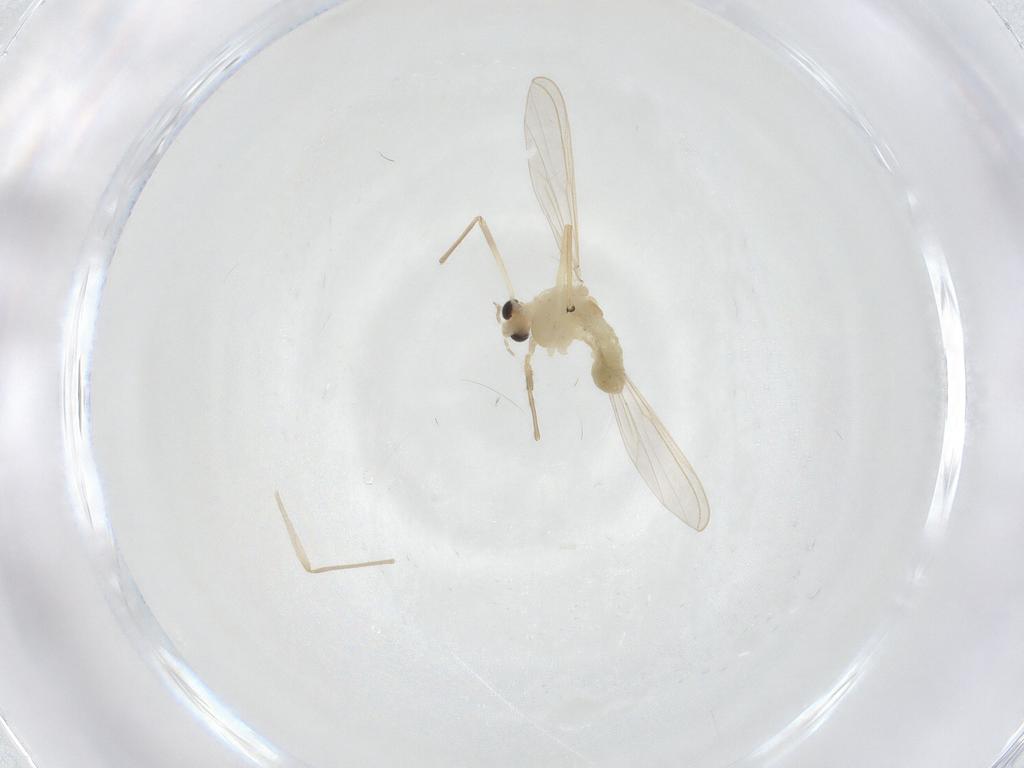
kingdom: Animalia
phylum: Arthropoda
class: Insecta
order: Diptera
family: Chironomidae
